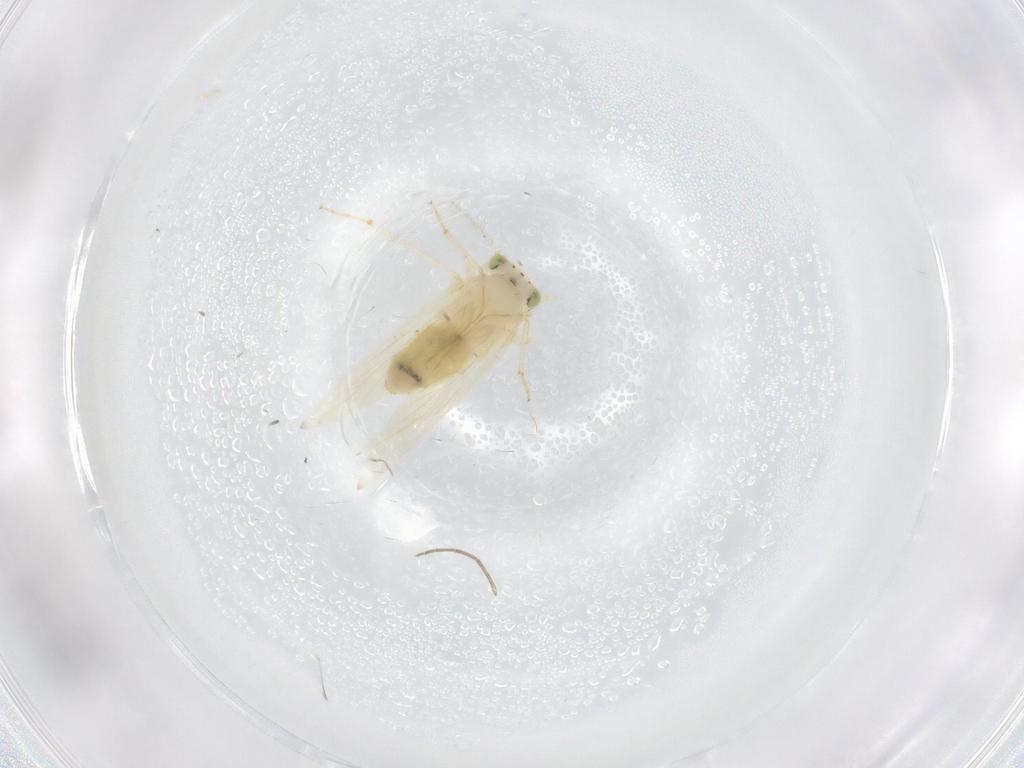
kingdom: Animalia
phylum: Arthropoda
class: Insecta
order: Psocodea
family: Lepidopsocidae
